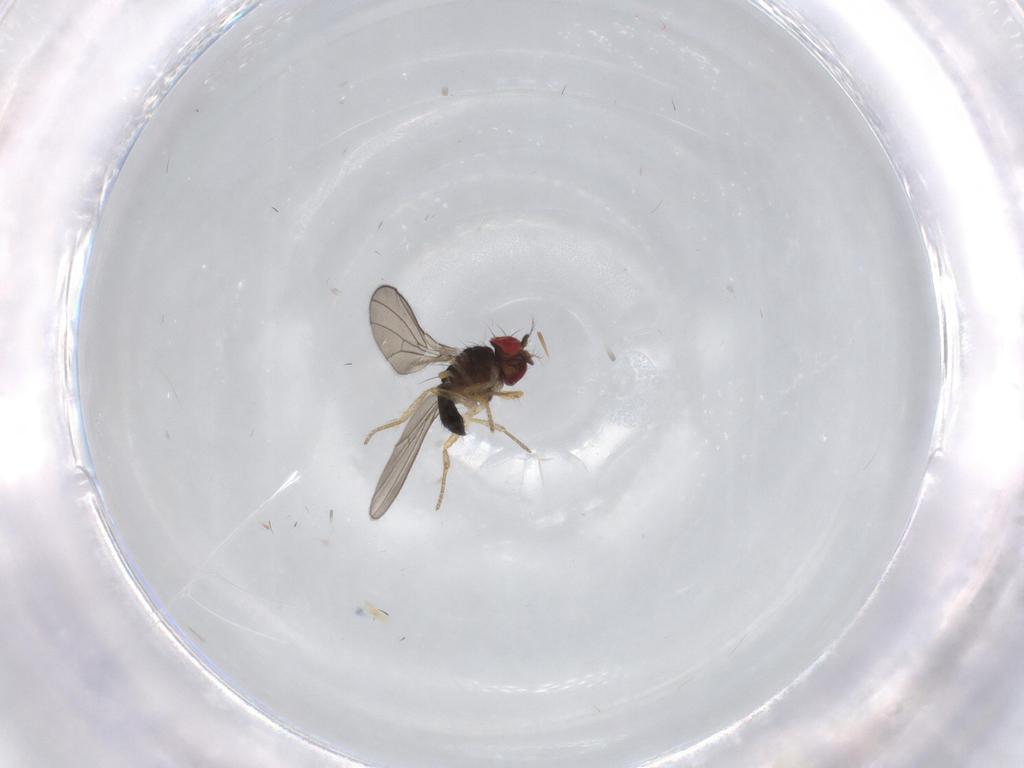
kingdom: Animalia
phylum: Arthropoda
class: Insecta
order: Diptera
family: Drosophilidae
